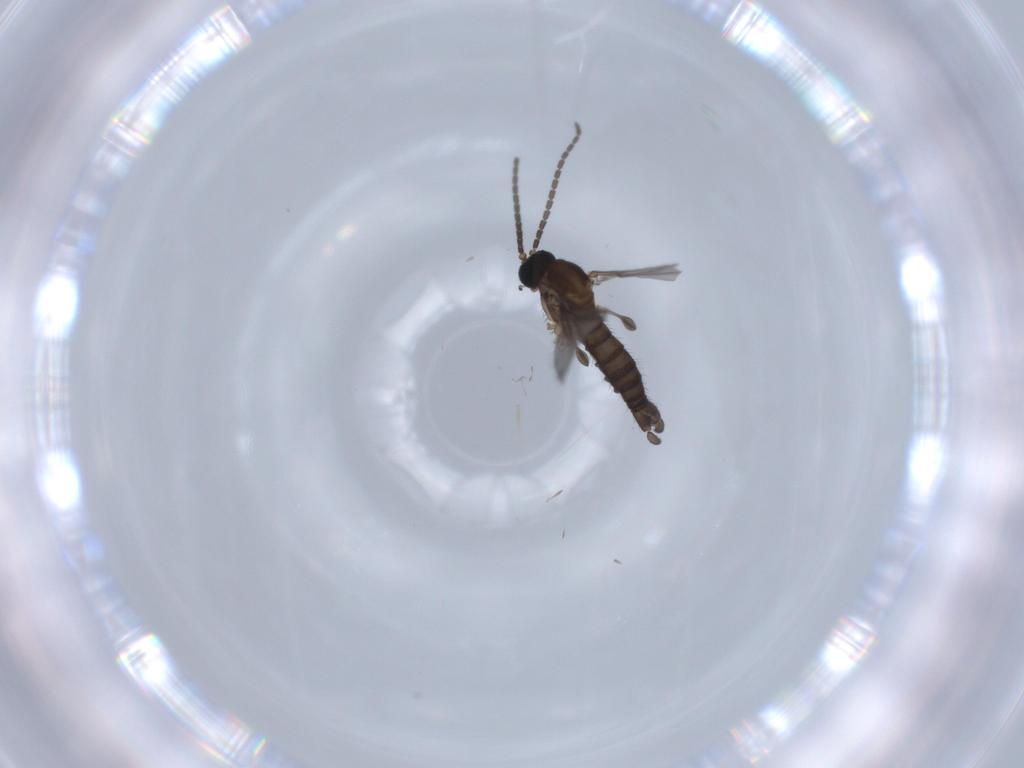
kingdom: Animalia
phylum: Arthropoda
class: Insecta
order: Diptera
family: Sciaridae
